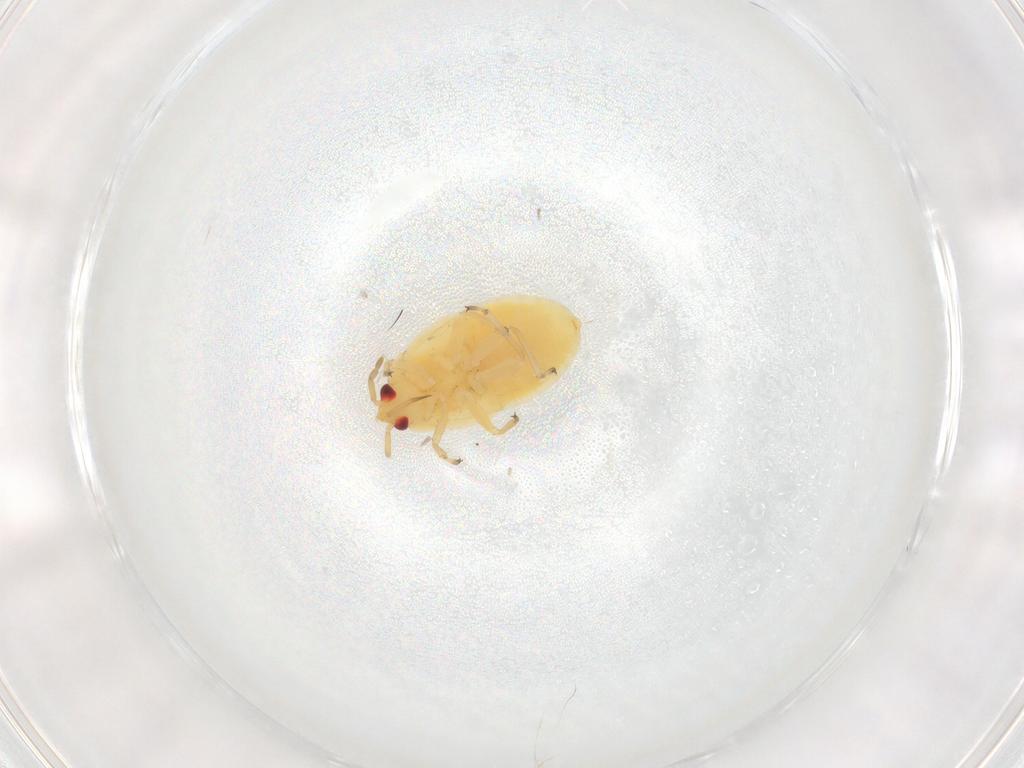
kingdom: Animalia
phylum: Arthropoda
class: Insecta
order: Hemiptera
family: Anthocoridae
